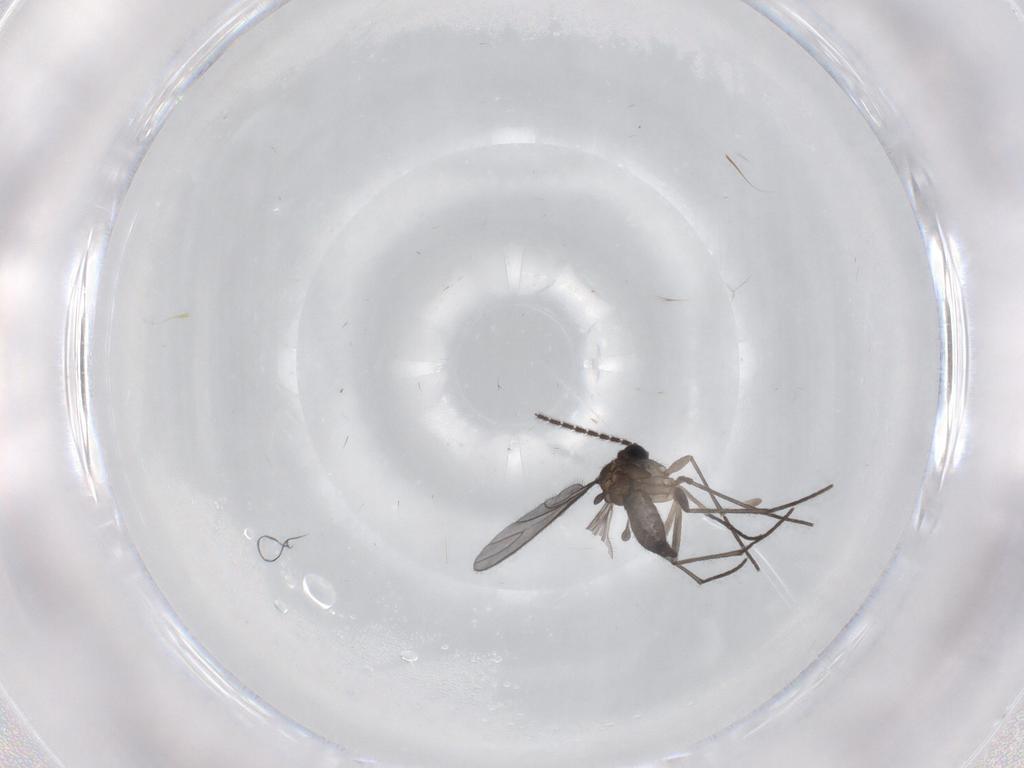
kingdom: Animalia
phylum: Arthropoda
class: Insecta
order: Diptera
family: Sciaridae
